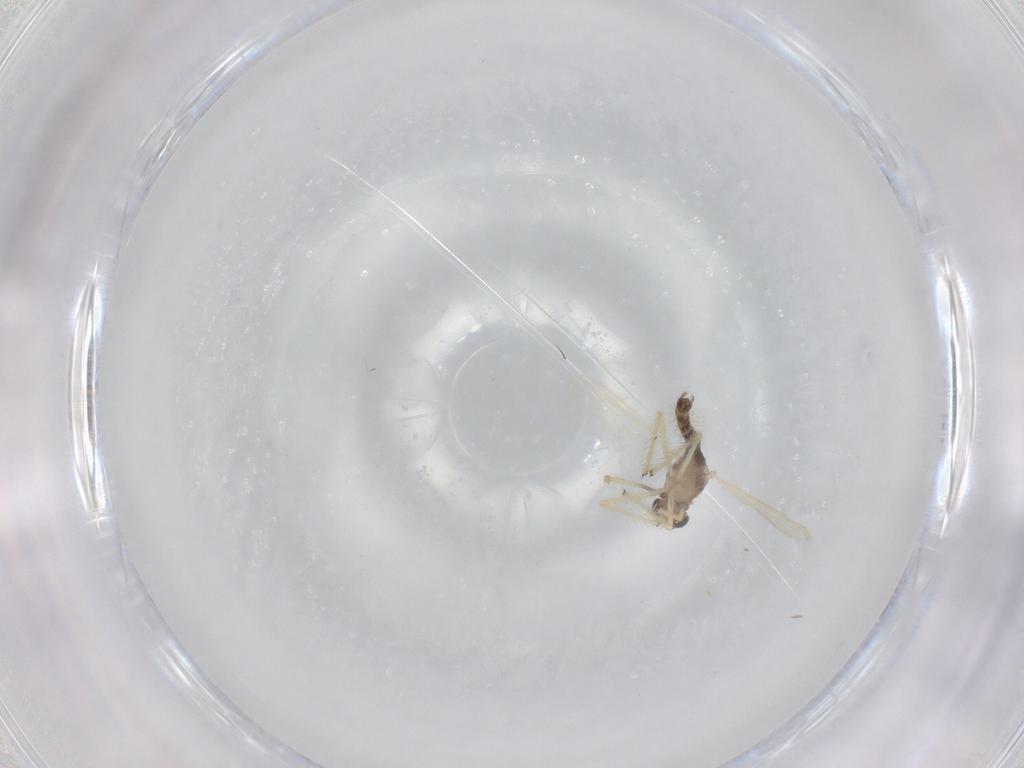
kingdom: Animalia
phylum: Arthropoda
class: Insecta
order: Diptera
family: Chironomidae
